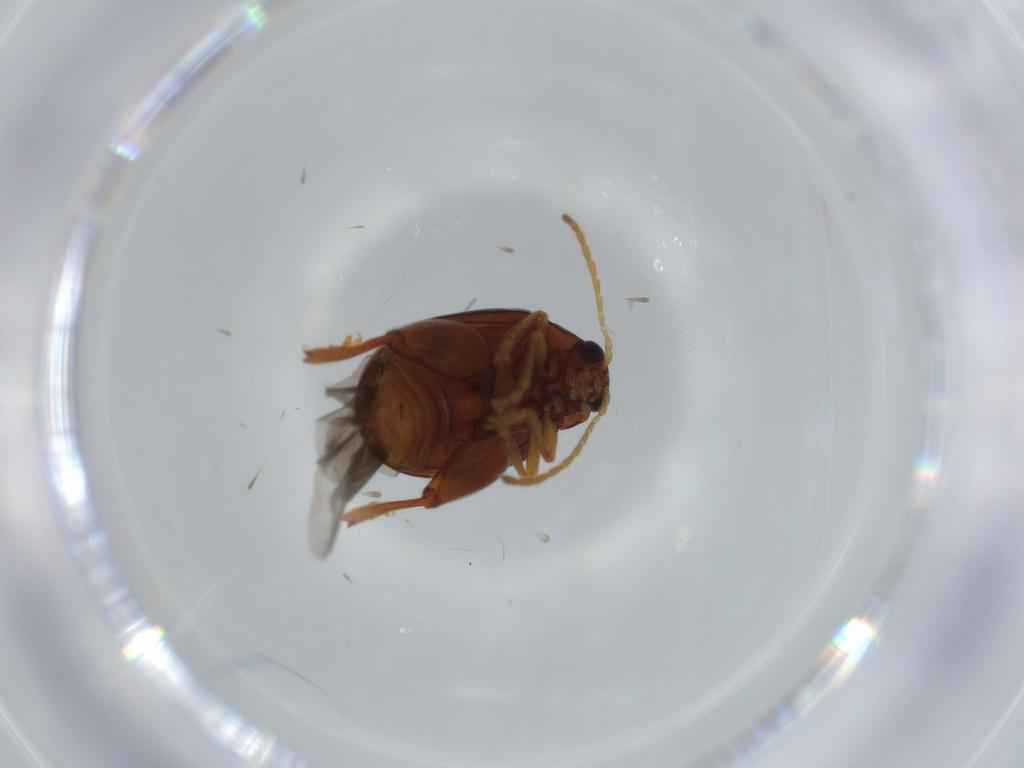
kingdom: Animalia
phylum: Arthropoda
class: Insecta
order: Coleoptera
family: Chrysomelidae
